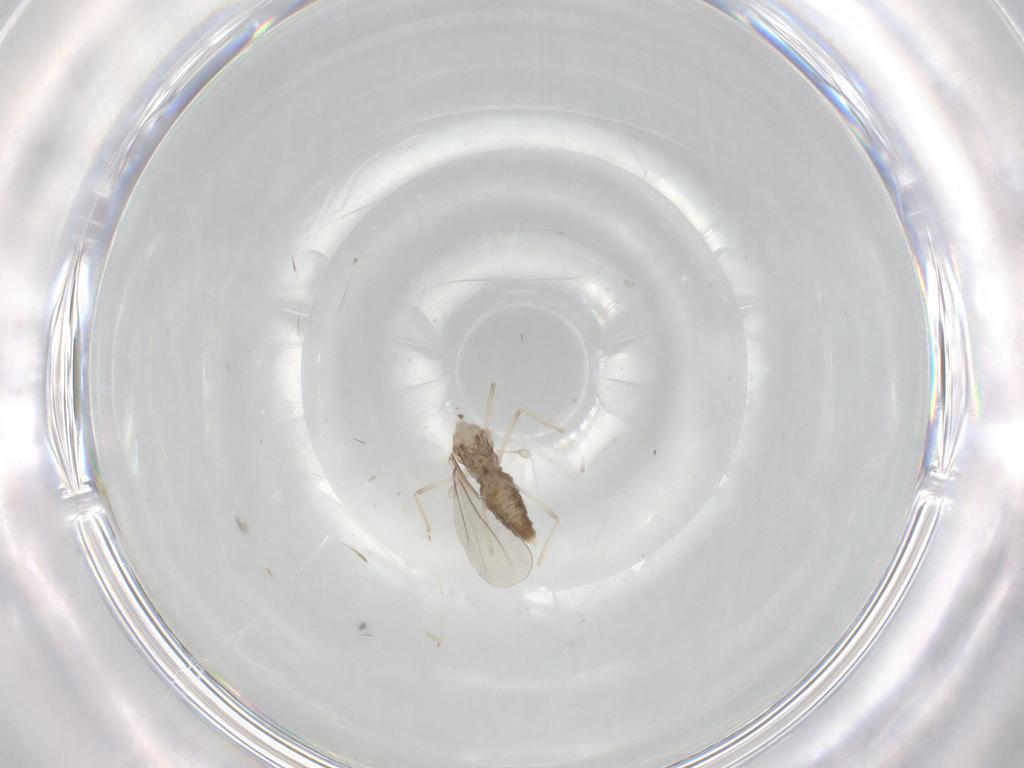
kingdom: Animalia
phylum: Arthropoda
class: Insecta
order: Diptera
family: Cecidomyiidae
